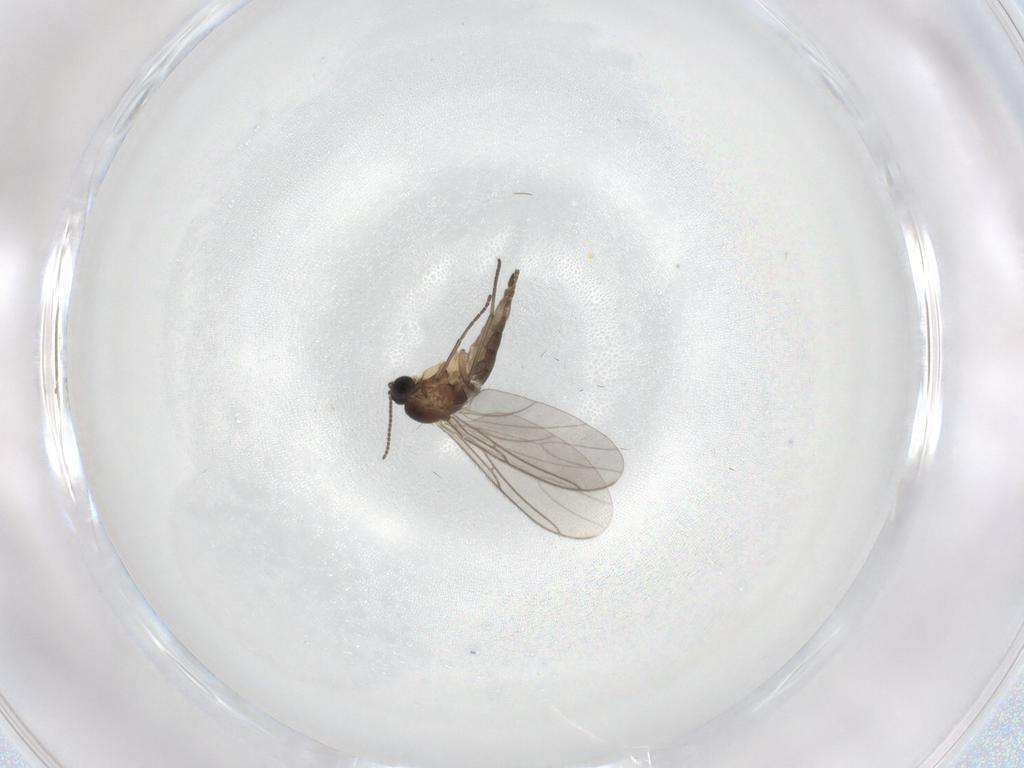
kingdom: Animalia
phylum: Arthropoda
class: Insecta
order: Diptera
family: Sciaridae
